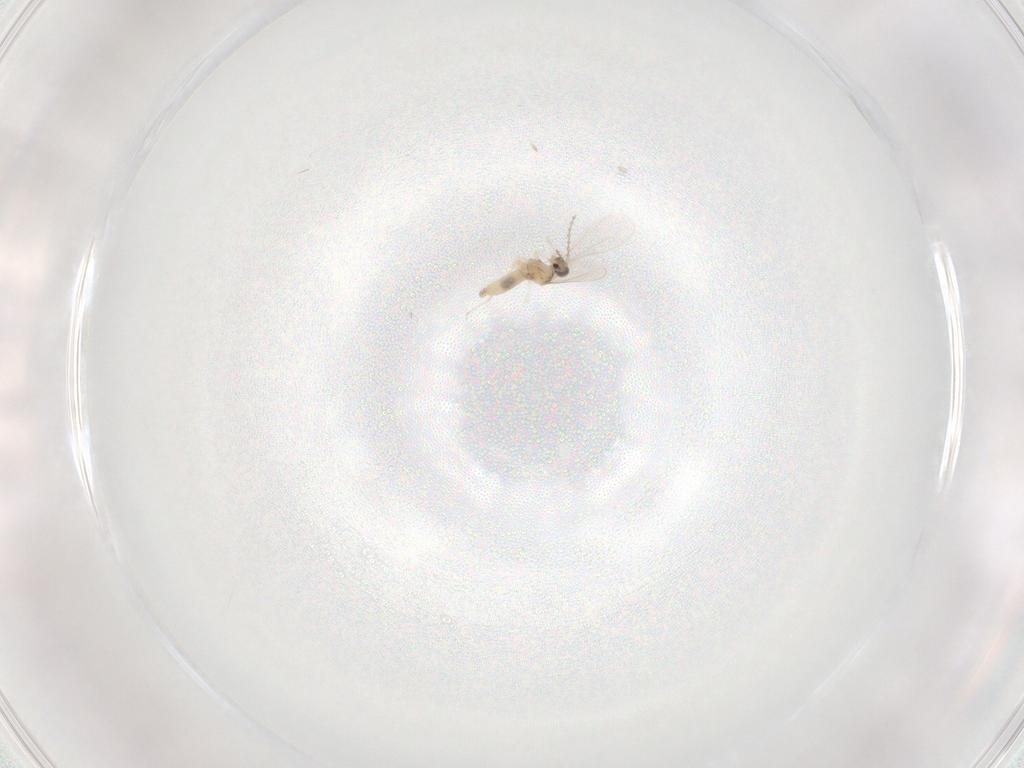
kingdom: Animalia
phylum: Arthropoda
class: Insecta
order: Diptera
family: Cecidomyiidae
